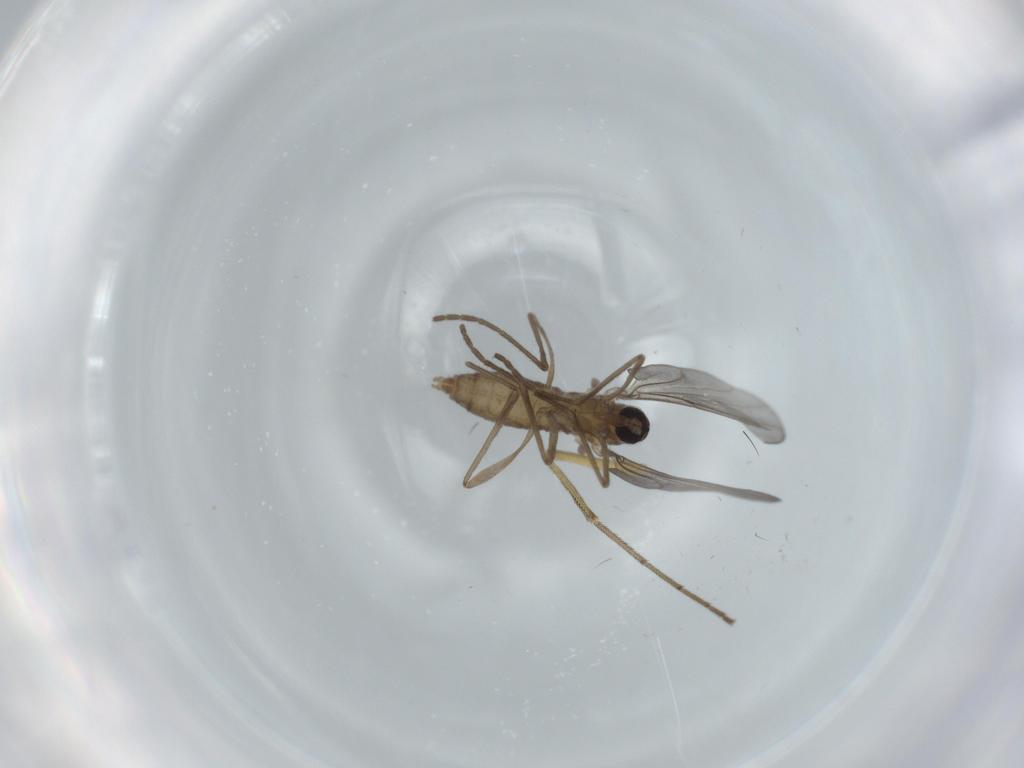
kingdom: Animalia
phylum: Arthropoda
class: Insecta
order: Diptera
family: Cecidomyiidae
